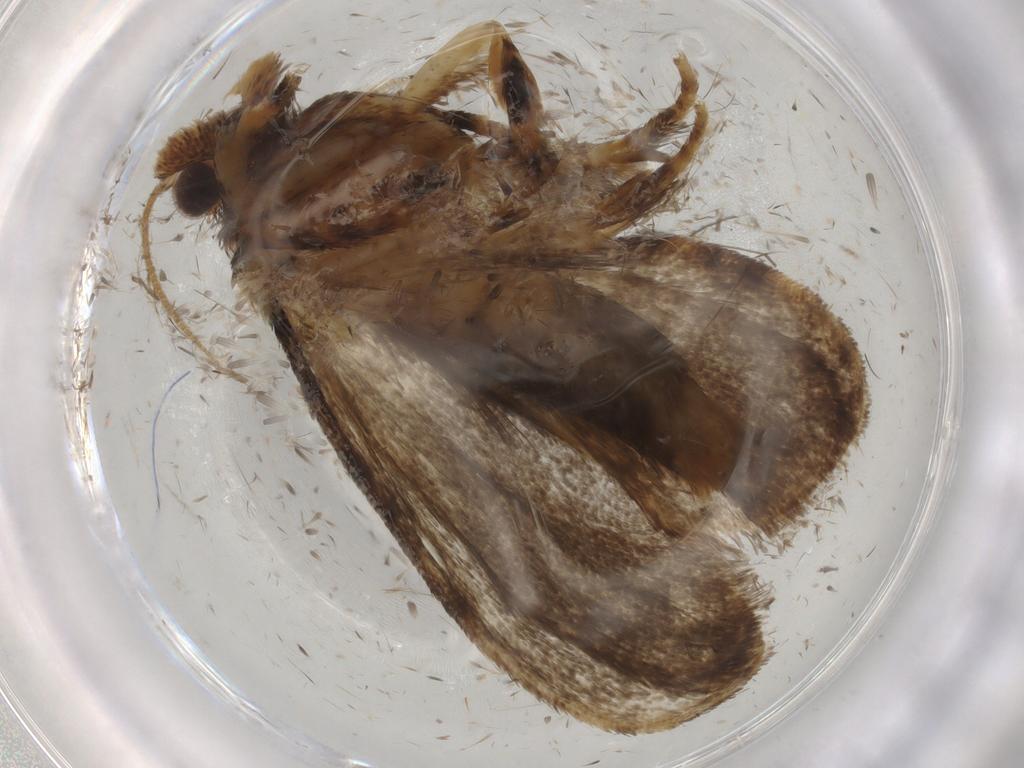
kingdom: Animalia
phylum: Arthropoda
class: Insecta
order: Lepidoptera
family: Tineidae
